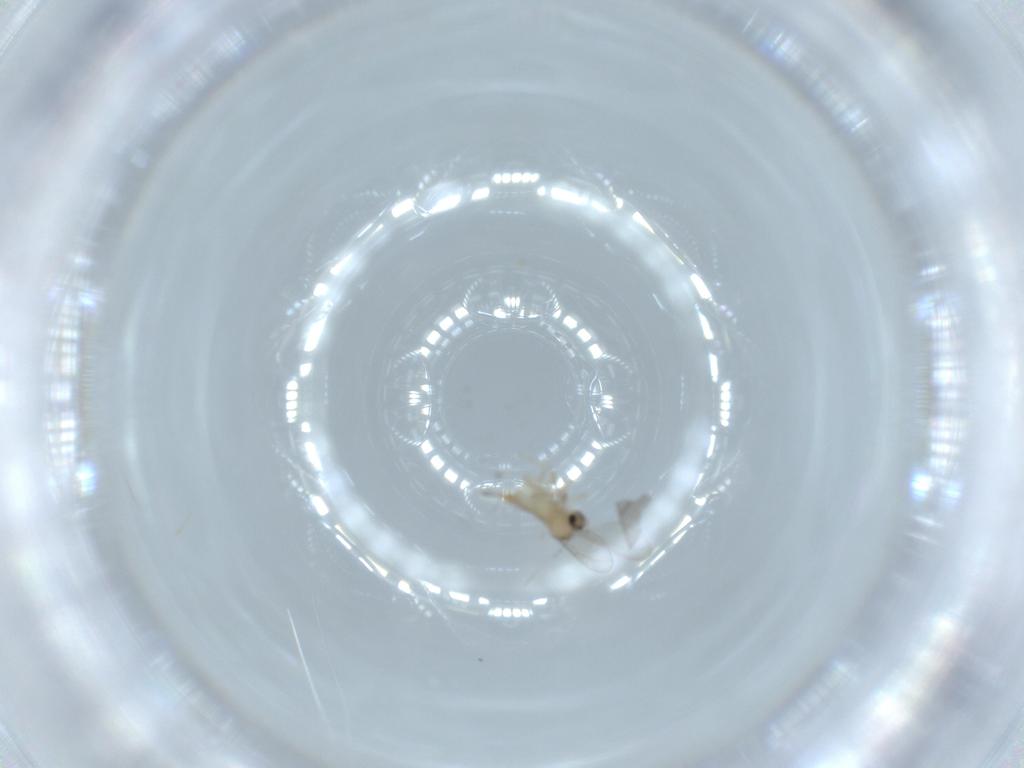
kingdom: Animalia
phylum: Arthropoda
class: Insecta
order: Diptera
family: Cecidomyiidae
